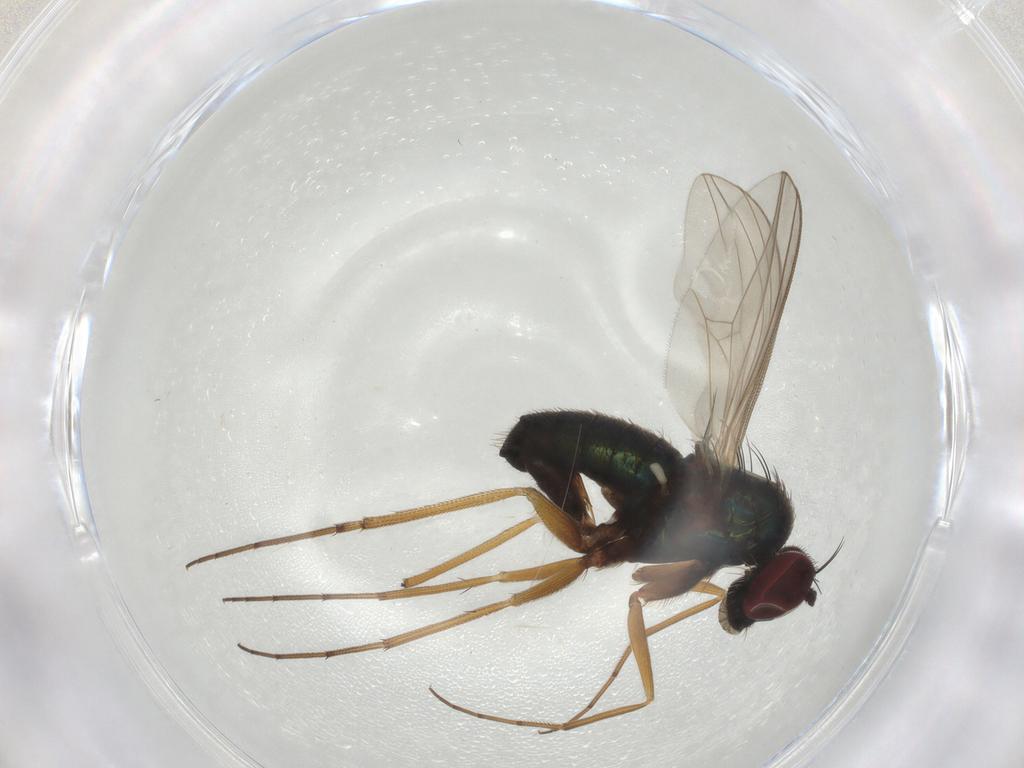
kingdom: Animalia
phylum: Arthropoda
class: Insecta
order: Diptera
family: Dolichopodidae
